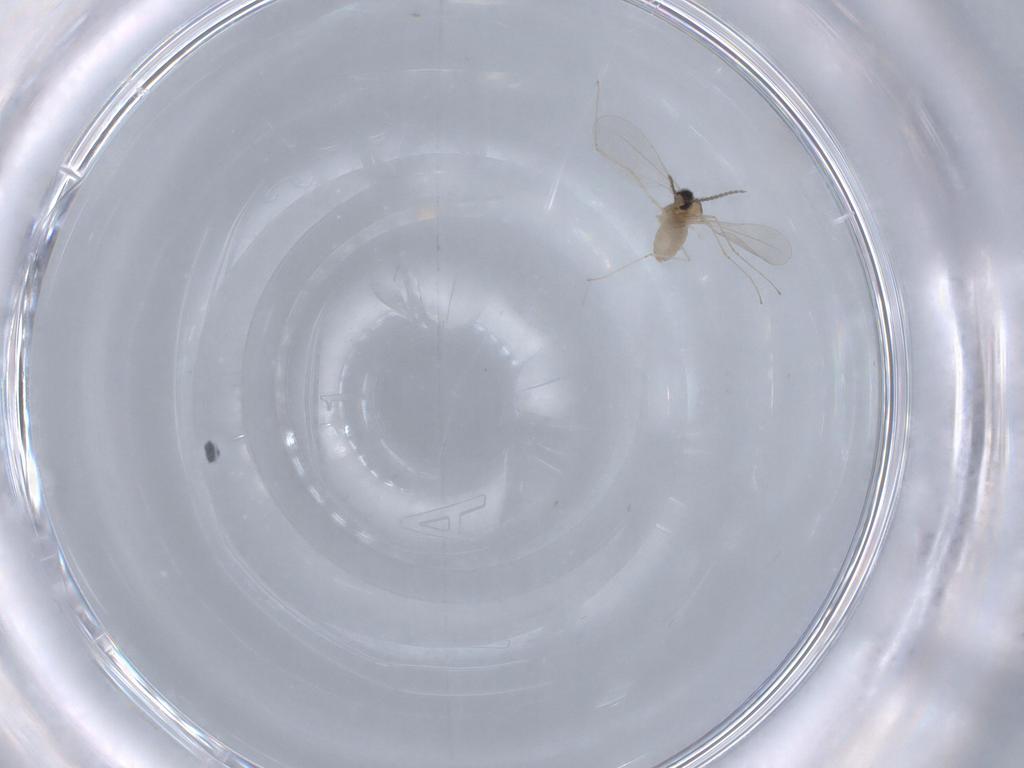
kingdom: Animalia
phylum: Arthropoda
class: Insecta
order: Diptera
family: Cecidomyiidae
